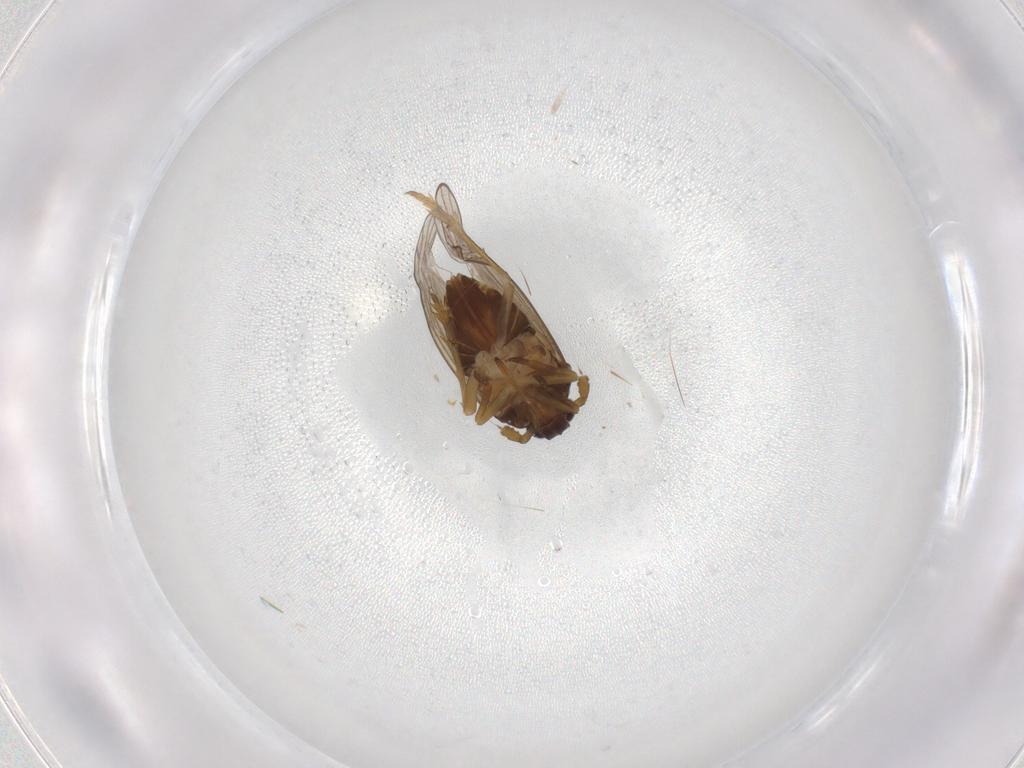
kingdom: Animalia
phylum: Arthropoda
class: Insecta
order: Hemiptera
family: Delphacidae
